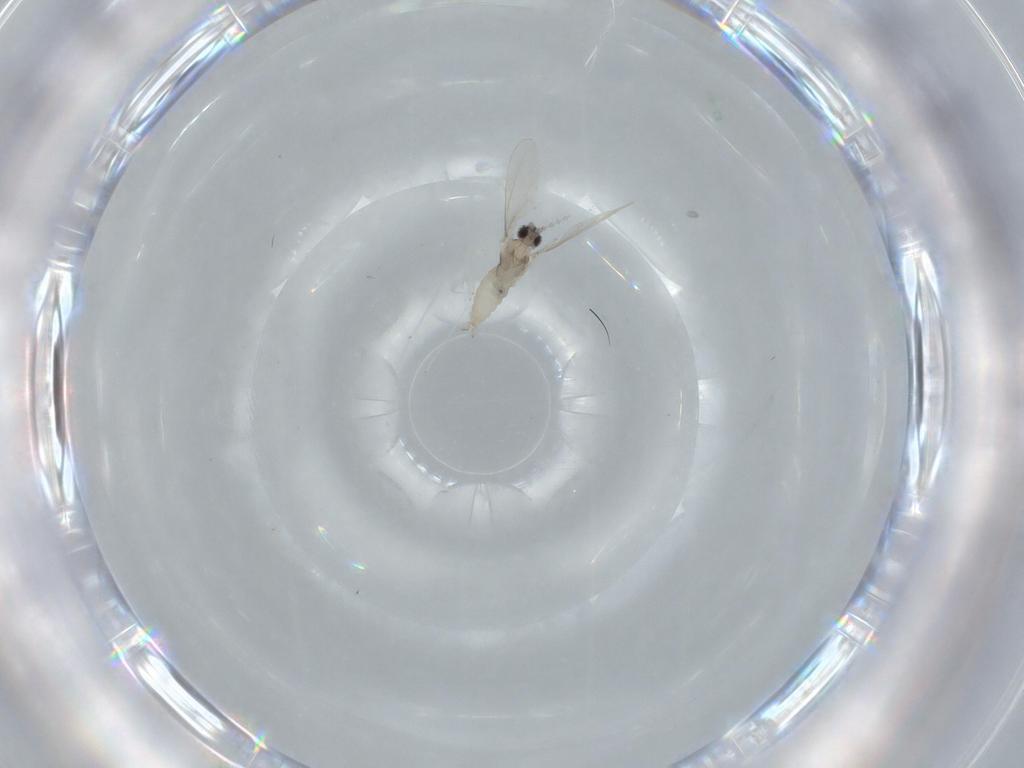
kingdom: Animalia
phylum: Arthropoda
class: Insecta
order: Diptera
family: Cecidomyiidae
